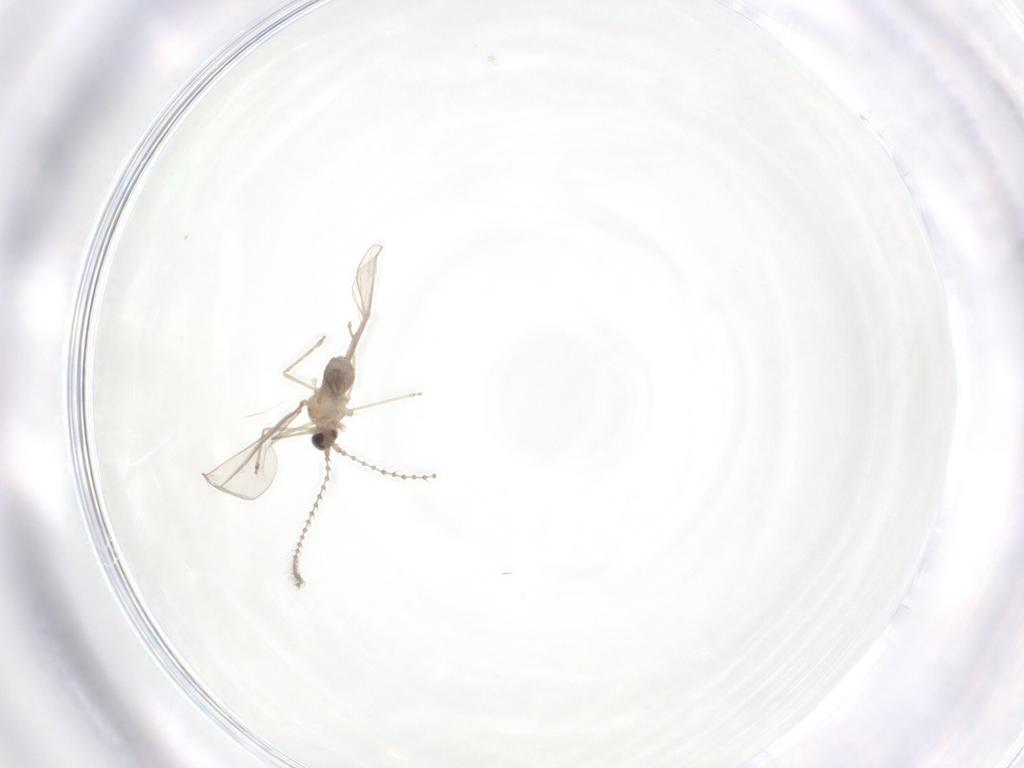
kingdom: Animalia
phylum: Arthropoda
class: Insecta
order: Diptera
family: Cecidomyiidae
